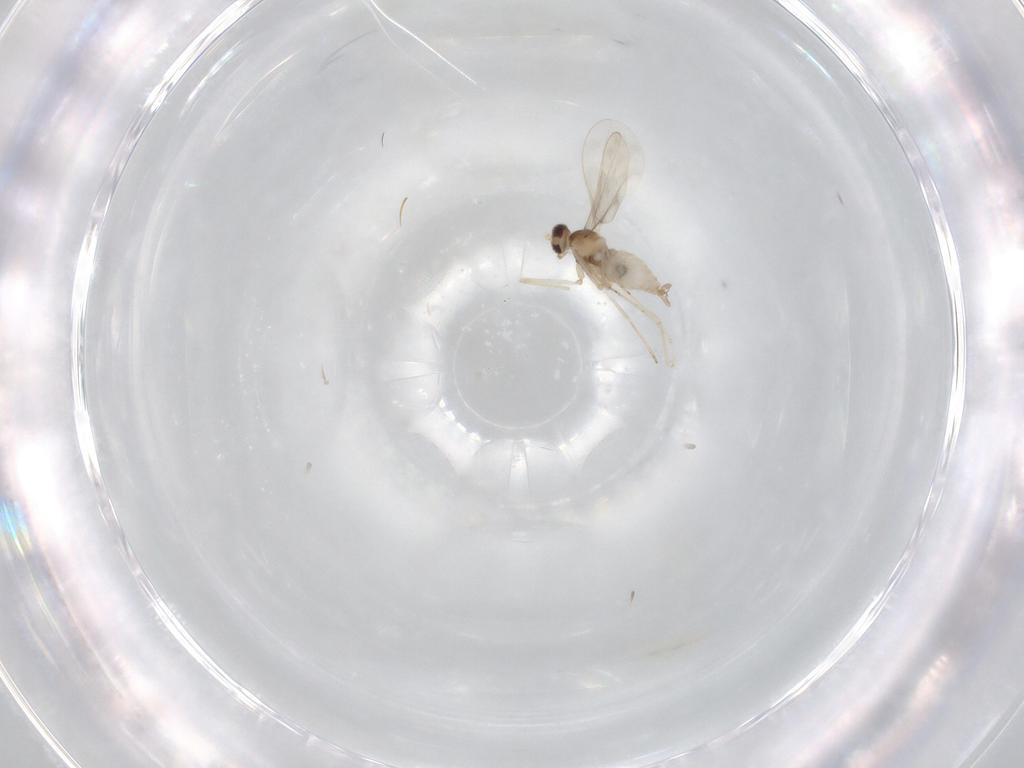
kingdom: Animalia
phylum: Arthropoda
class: Insecta
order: Diptera
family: Cecidomyiidae
